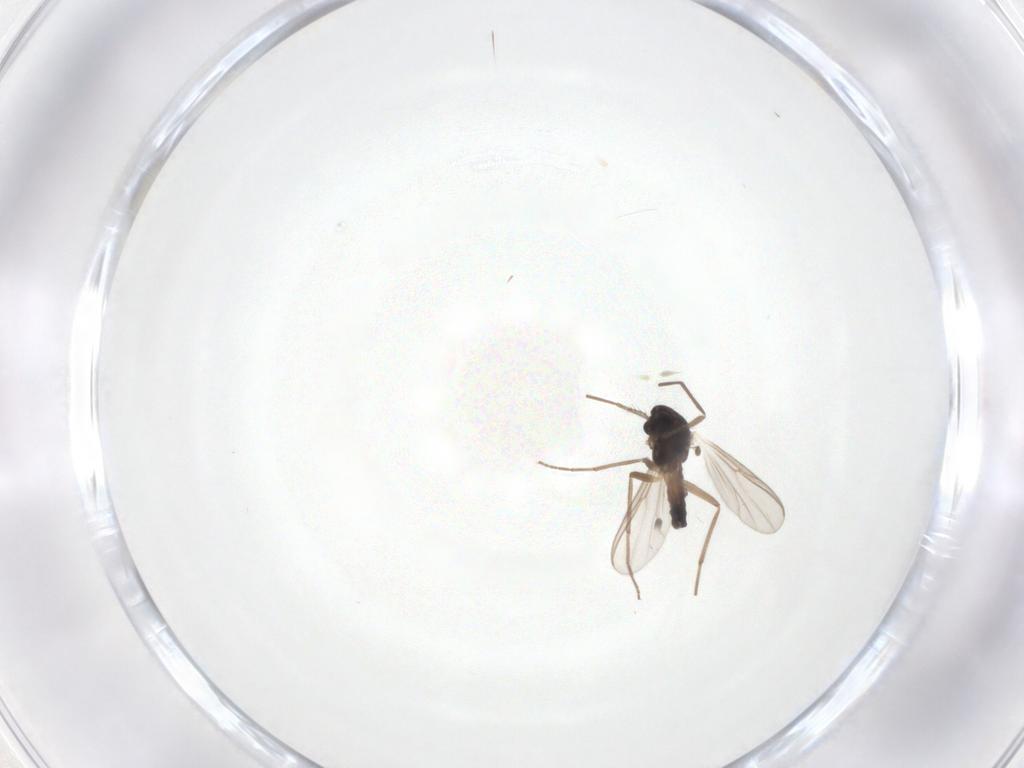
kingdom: Animalia
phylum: Arthropoda
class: Insecta
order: Diptera
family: Chironomidae
